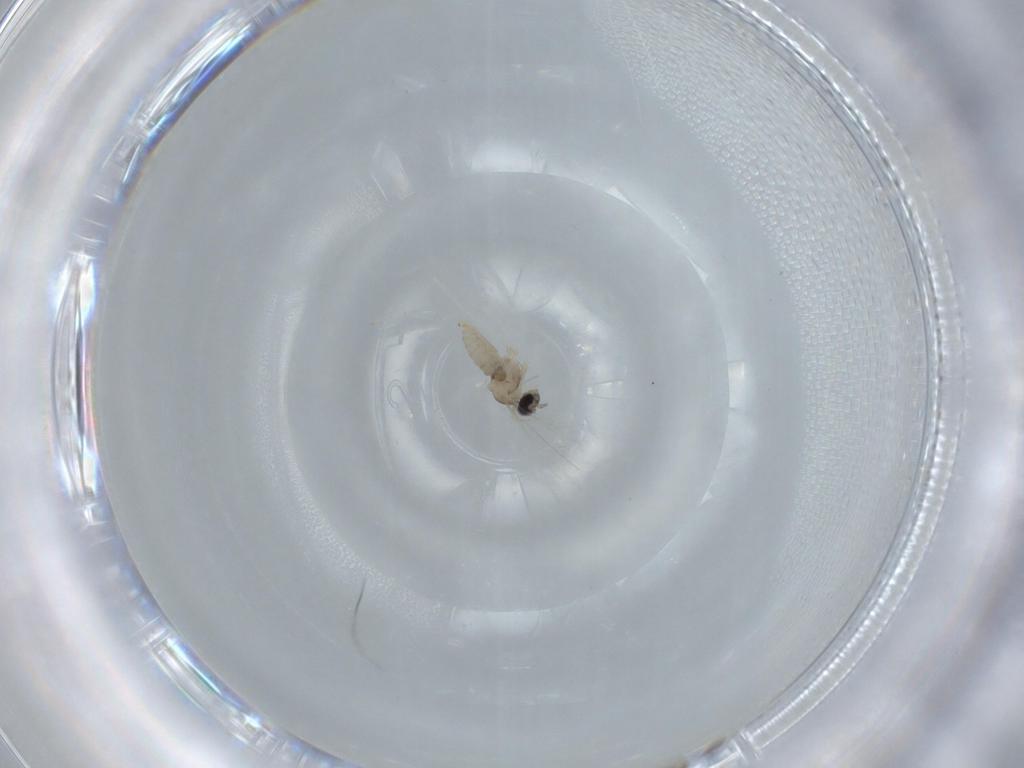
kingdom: Animalia
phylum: Arthropoda
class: Insecta
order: Diptera
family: Cecidomyiidae
